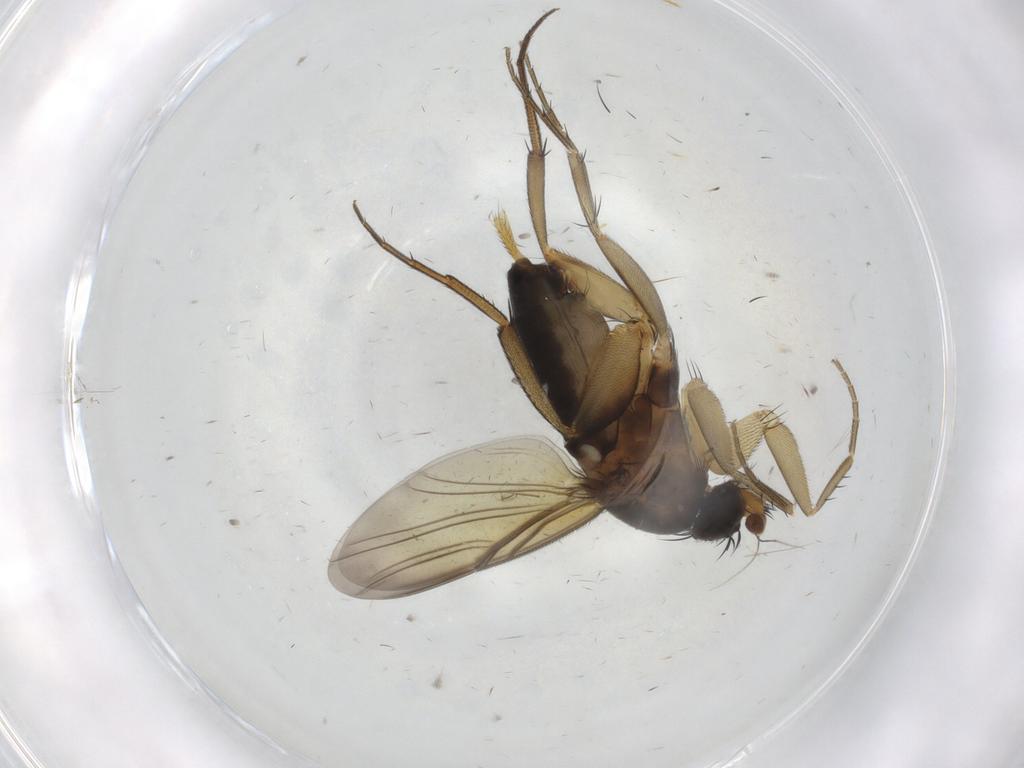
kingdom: Animalia
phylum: Arthropoda
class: Insecta
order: Diptera
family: Phoridae
